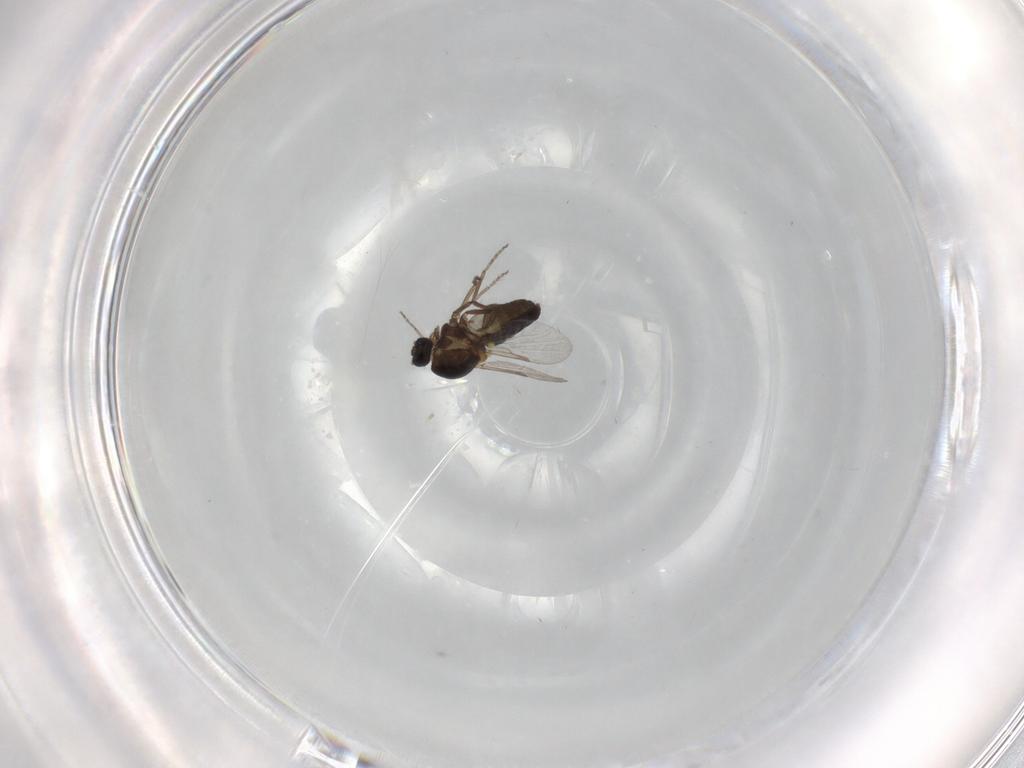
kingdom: Animalia
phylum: Arthropoda
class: Insecta
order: Diptera
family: Ceratopogonidae
